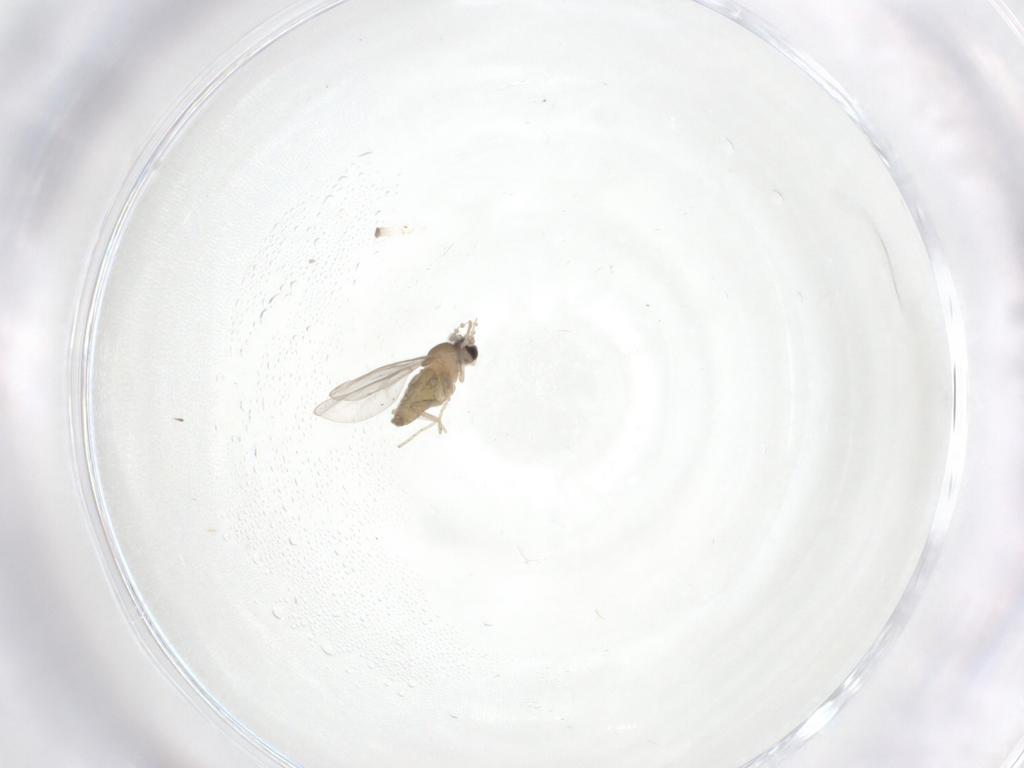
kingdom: Animalia
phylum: Arthropoda
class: Insecta
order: Diptera
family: Cecidomyiidae
